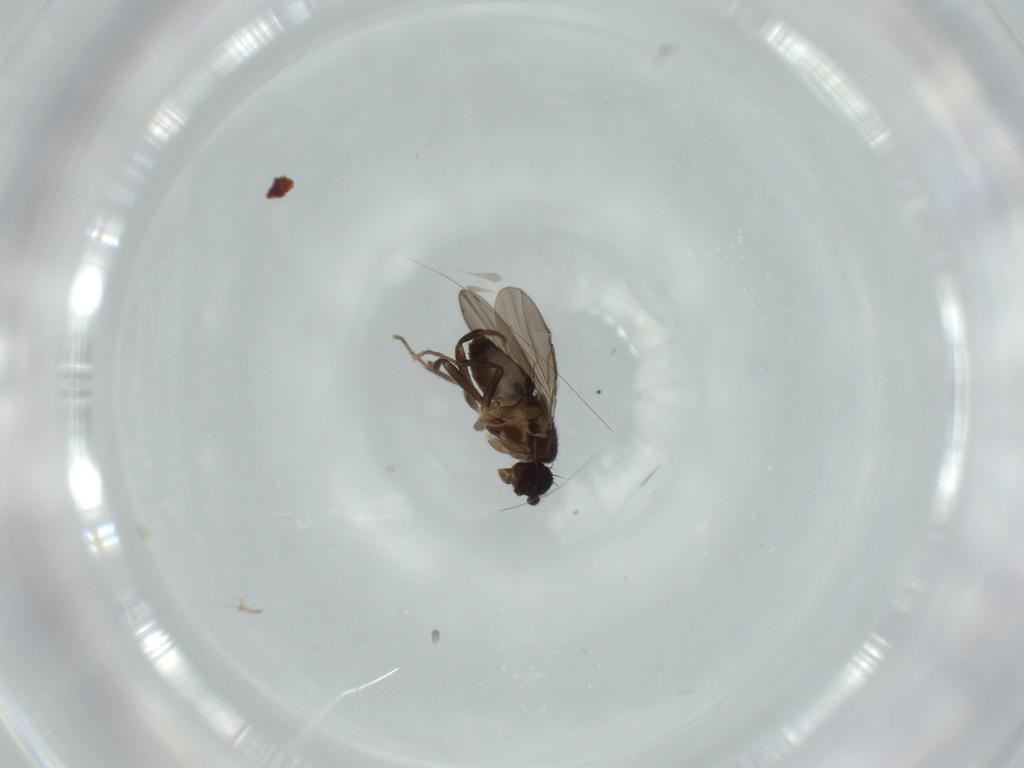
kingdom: Animalia
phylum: Arthropoda
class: Insecta
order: Diptera
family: Sphaeroceridae
